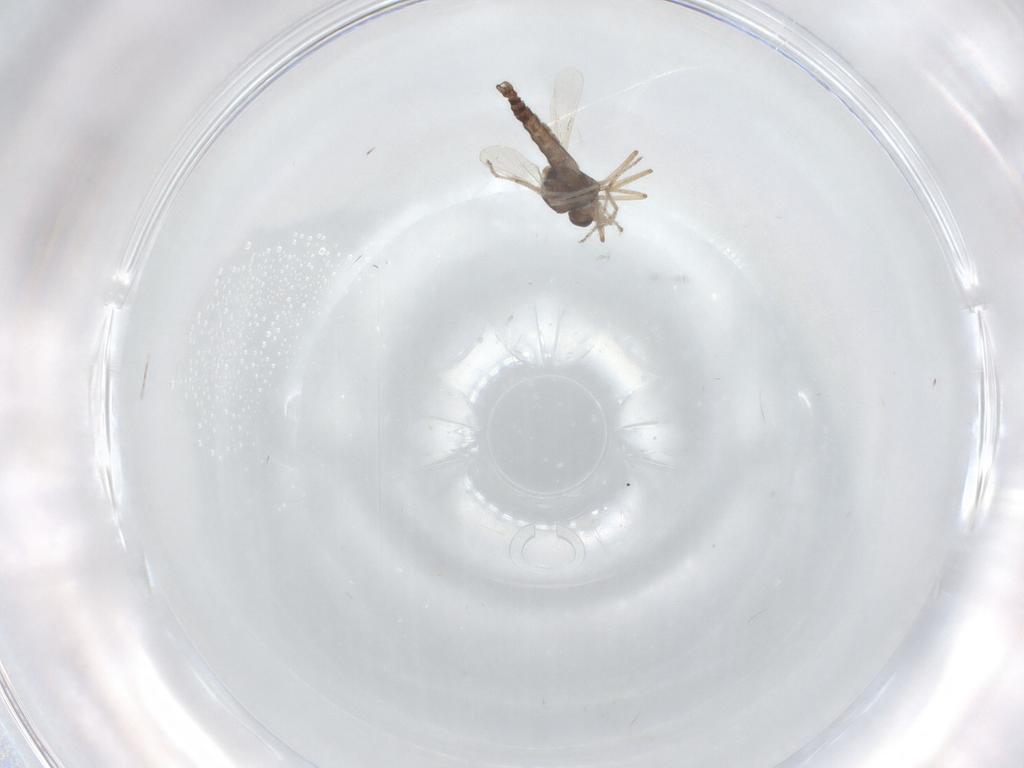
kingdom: Animalia
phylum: Arthropoda
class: Insecta
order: Diptera
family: Ceratopogonidae
